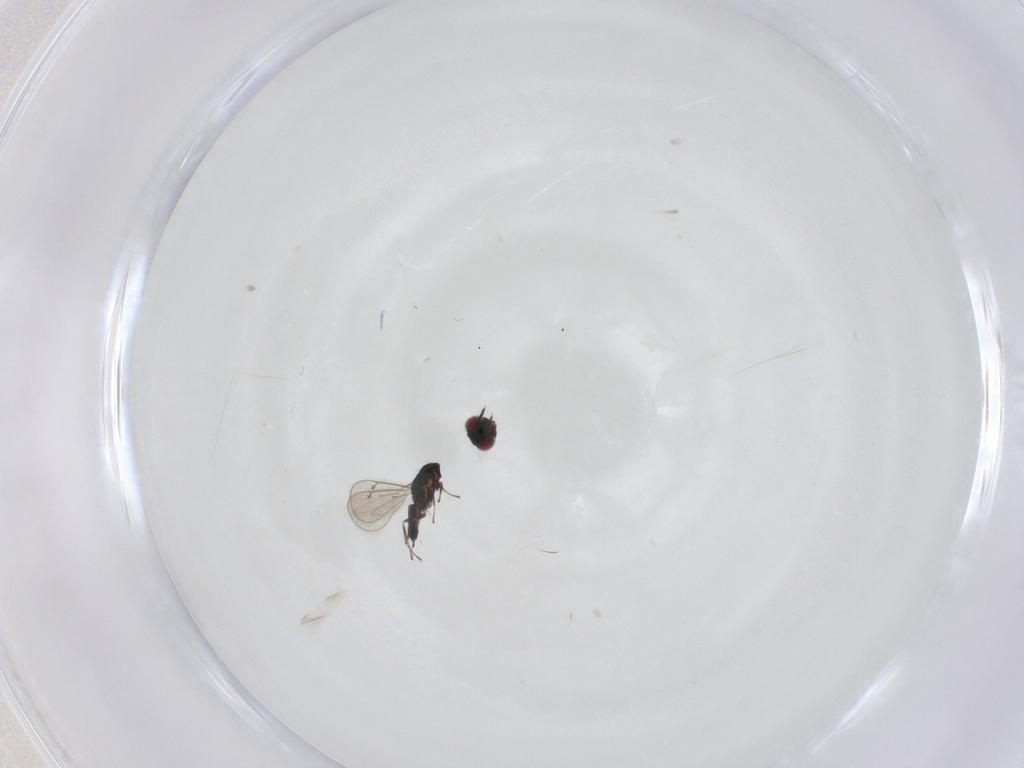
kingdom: Animalia
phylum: Arthropoda
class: Insecta
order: Hymenoptera
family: Eulophidae
